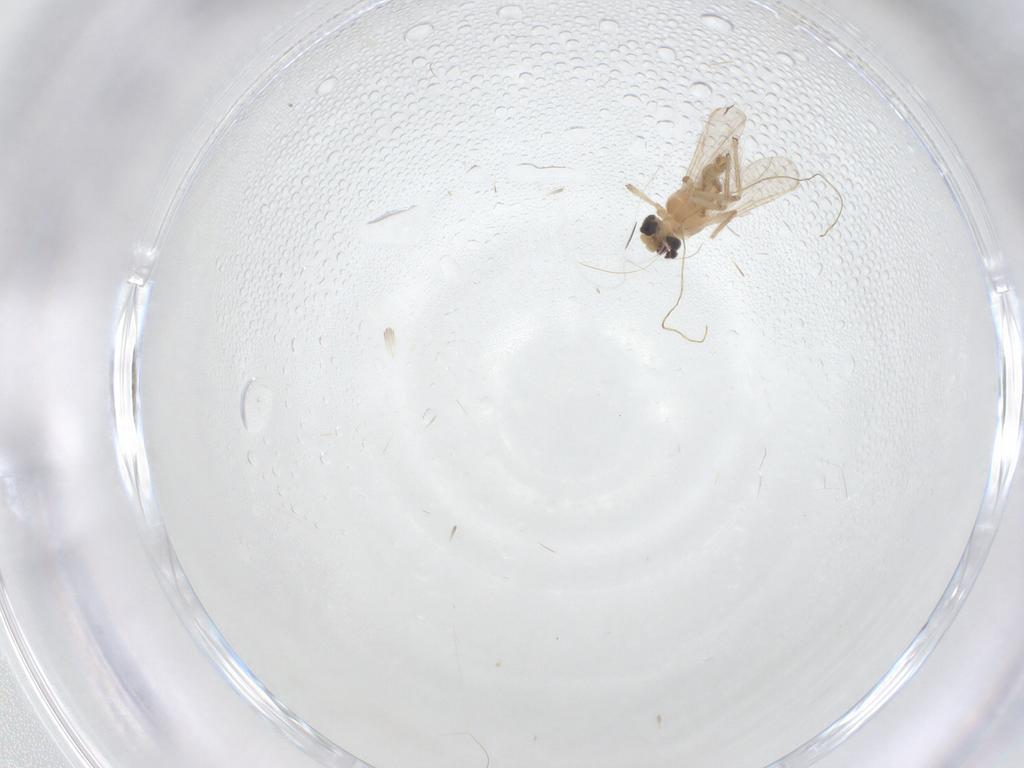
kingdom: Animalia
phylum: Arthropoda
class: Insecta
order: Diptera
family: Chironomidae
